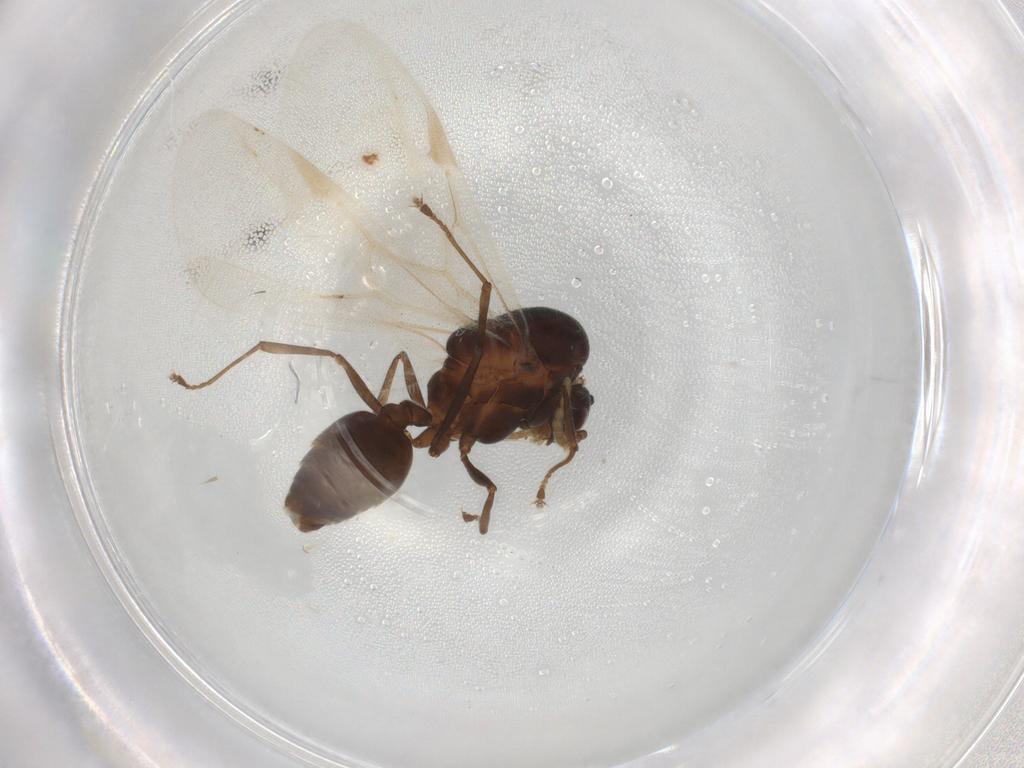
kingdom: Animalia
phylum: Arthropoda
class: Insecta
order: Hymenoptera
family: Formicidae
